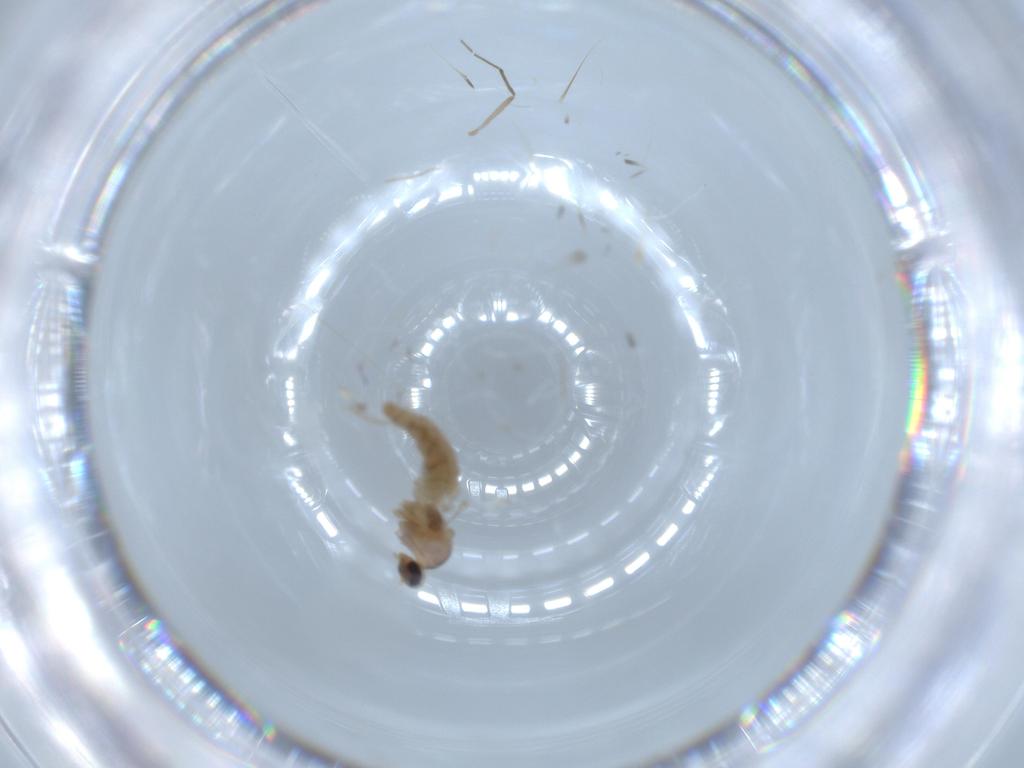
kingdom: Animalia
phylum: Arthropoda
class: Insecta
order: Diptera
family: Cecidomyiidae
